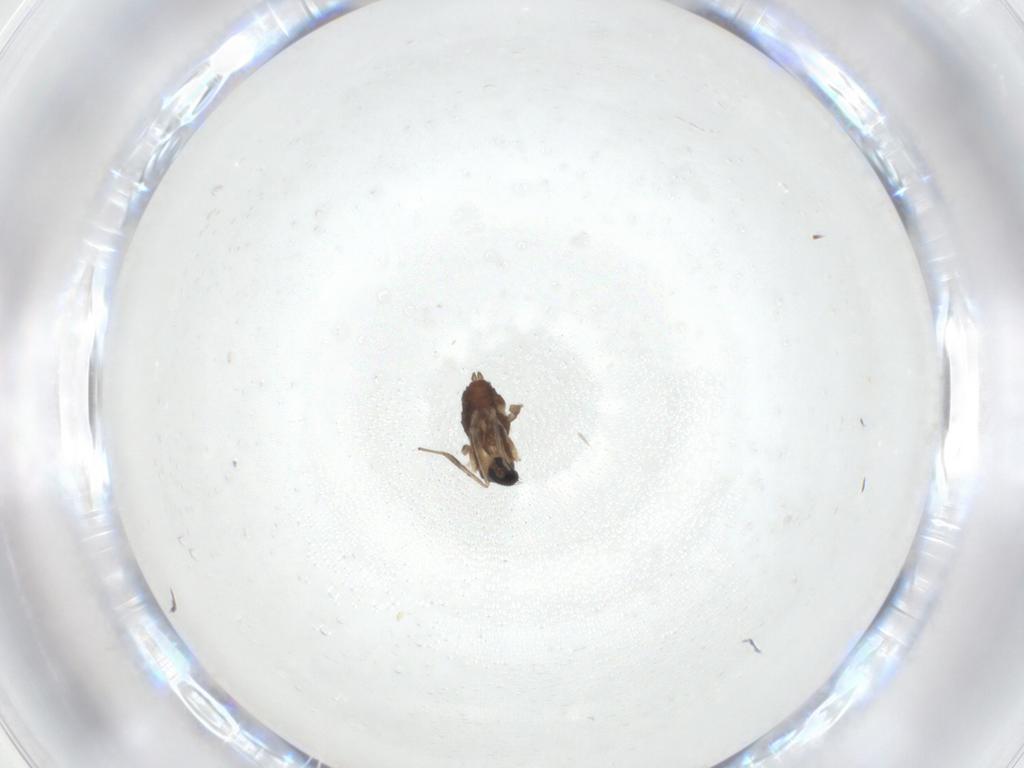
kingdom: Animalia
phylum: Arthropoda
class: Insecta
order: Diptera
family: Cecidomyiidae
